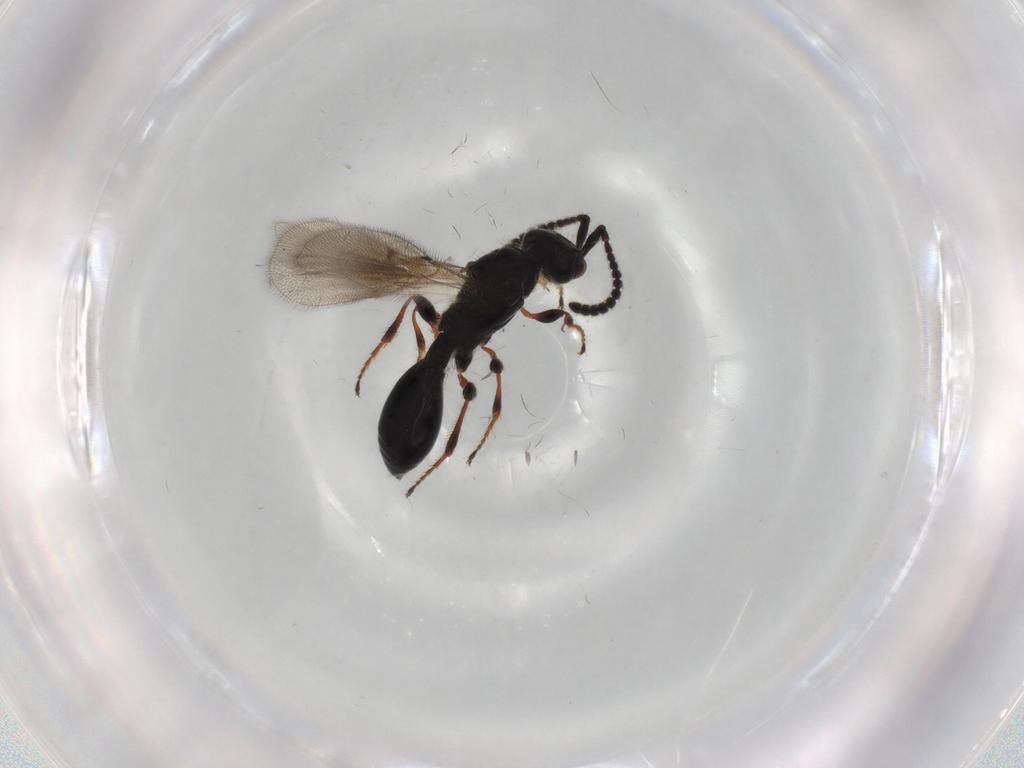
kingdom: Animalia
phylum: Arthropoda
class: Insecta
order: Hymenoptera
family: Diapriidae
